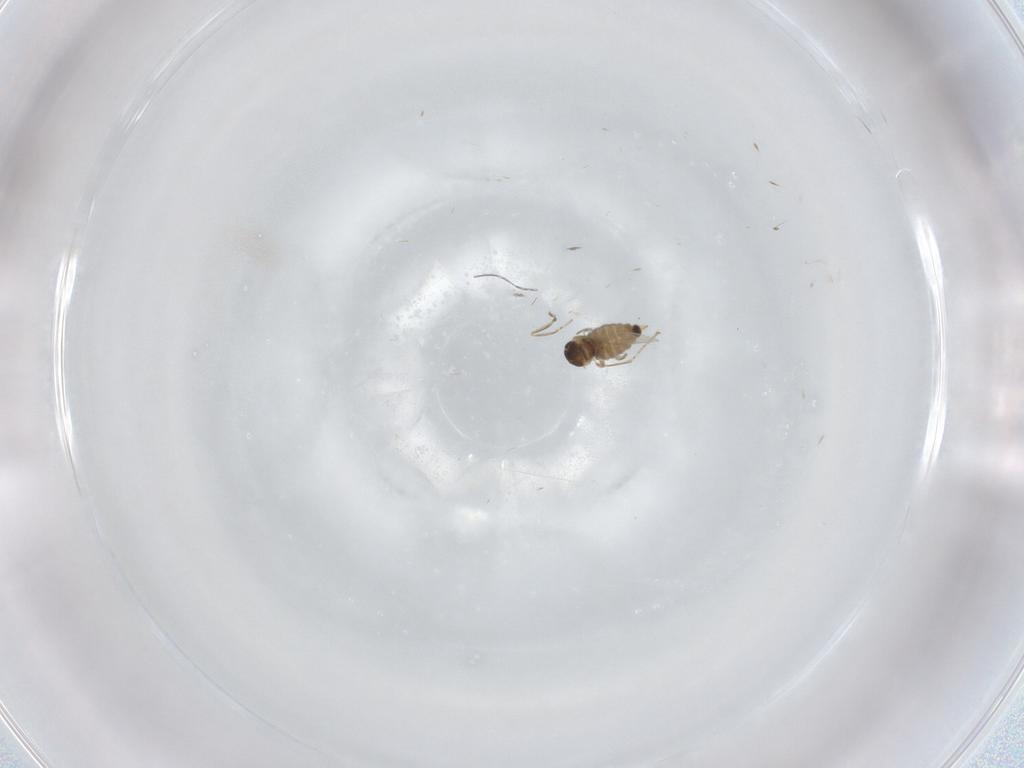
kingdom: Animalia
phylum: Arthropoda
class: Insecta
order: Diptera
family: Cecidomyiidae
